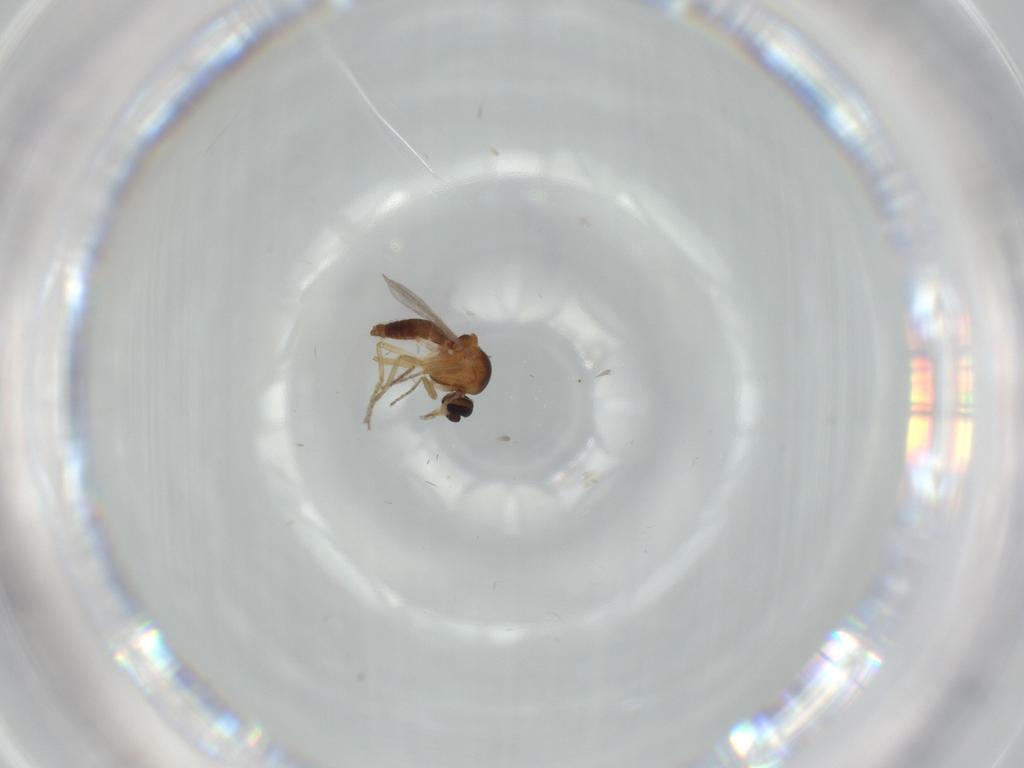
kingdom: Animalia
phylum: Arthropoda
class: Insecta
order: Diptera
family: Ceratopogonidae
